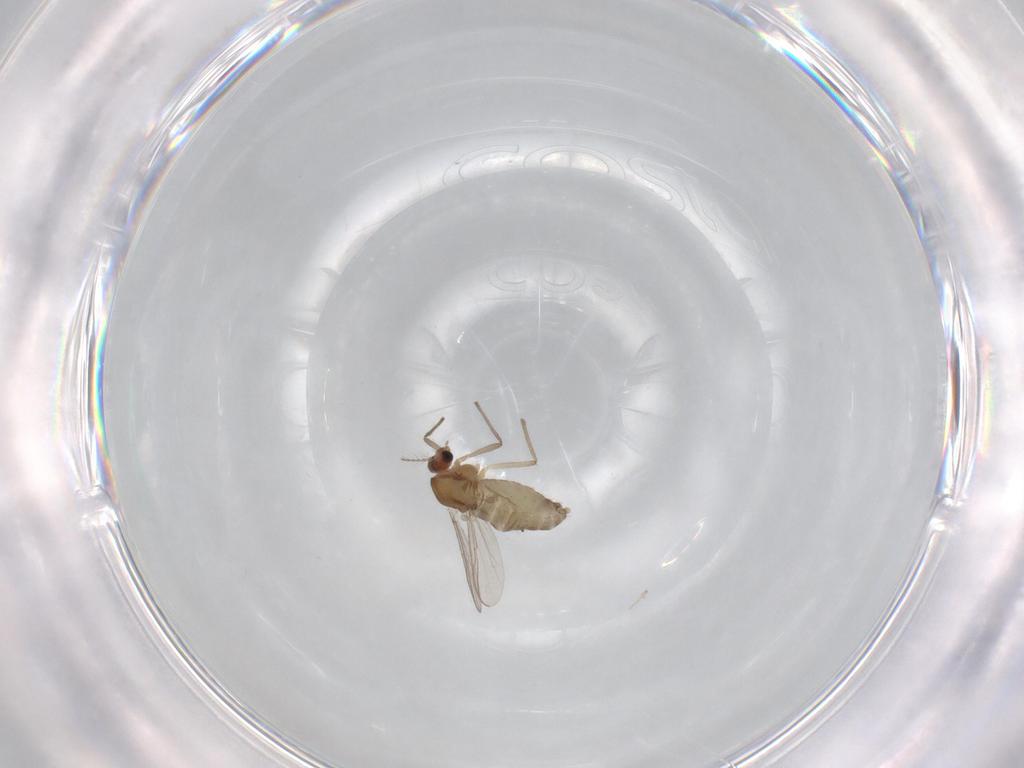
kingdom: Animalia
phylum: Arthropoda
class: Insecta
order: Diptera
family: Chironomidae
